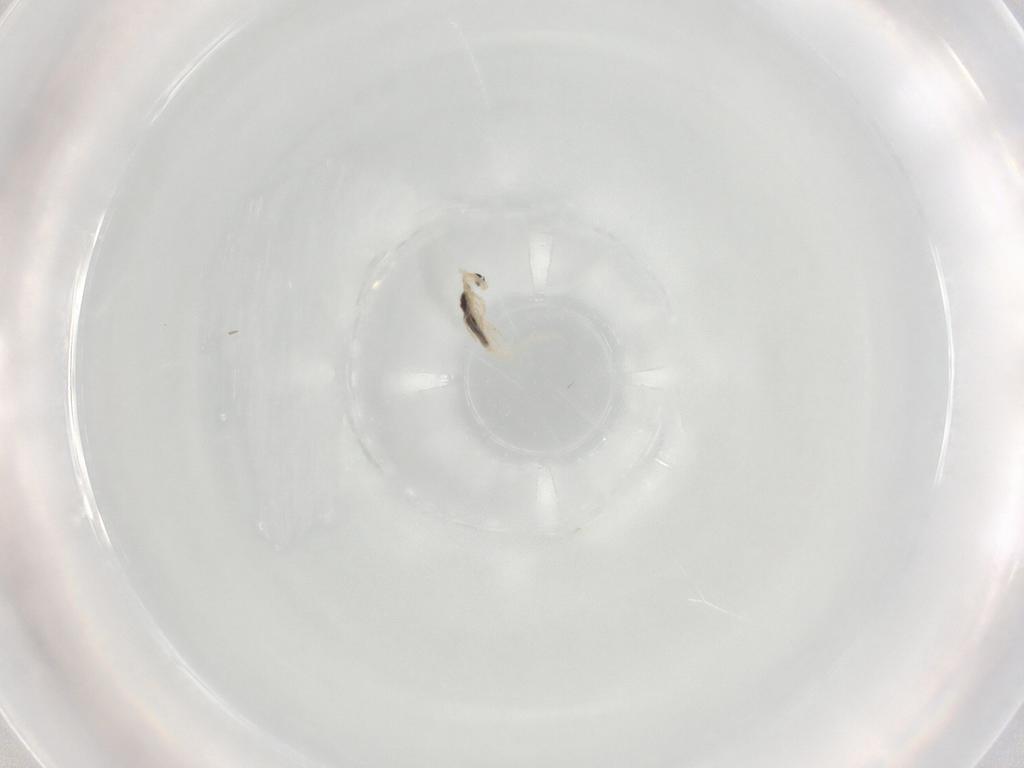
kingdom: Animalia
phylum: Arthropoda
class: Collembola
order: Entomobryomorpha
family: Entomobryidae
